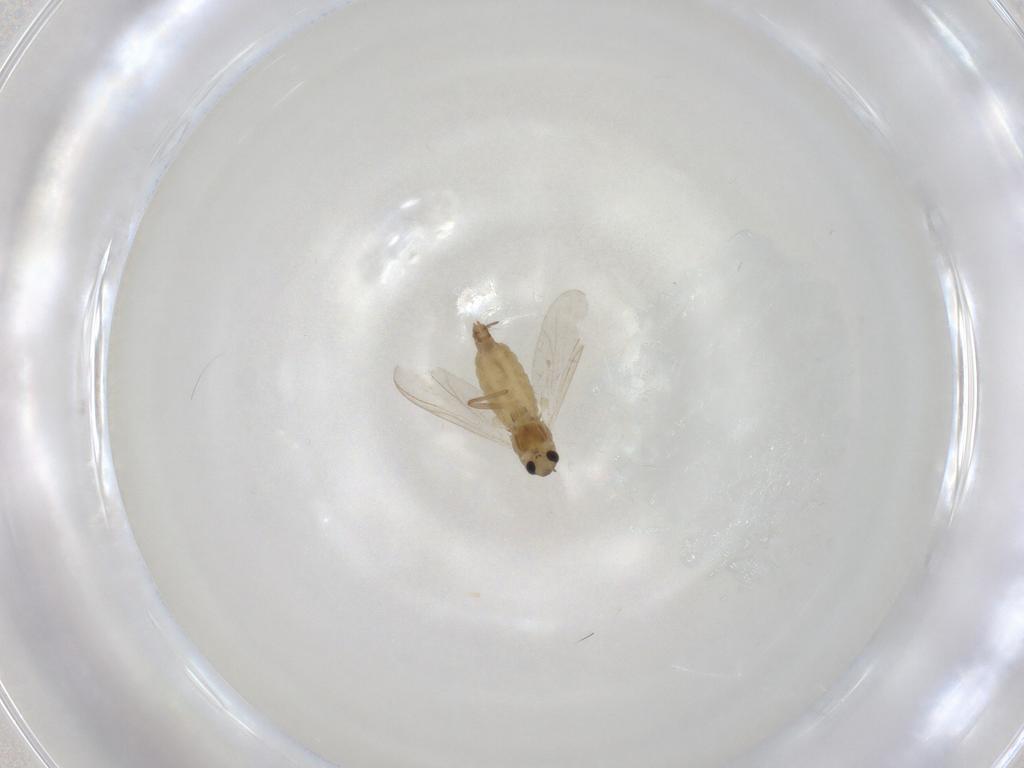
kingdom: Animalia
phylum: Arthropoda
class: Insecta
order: Diptera
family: Chironomidae
